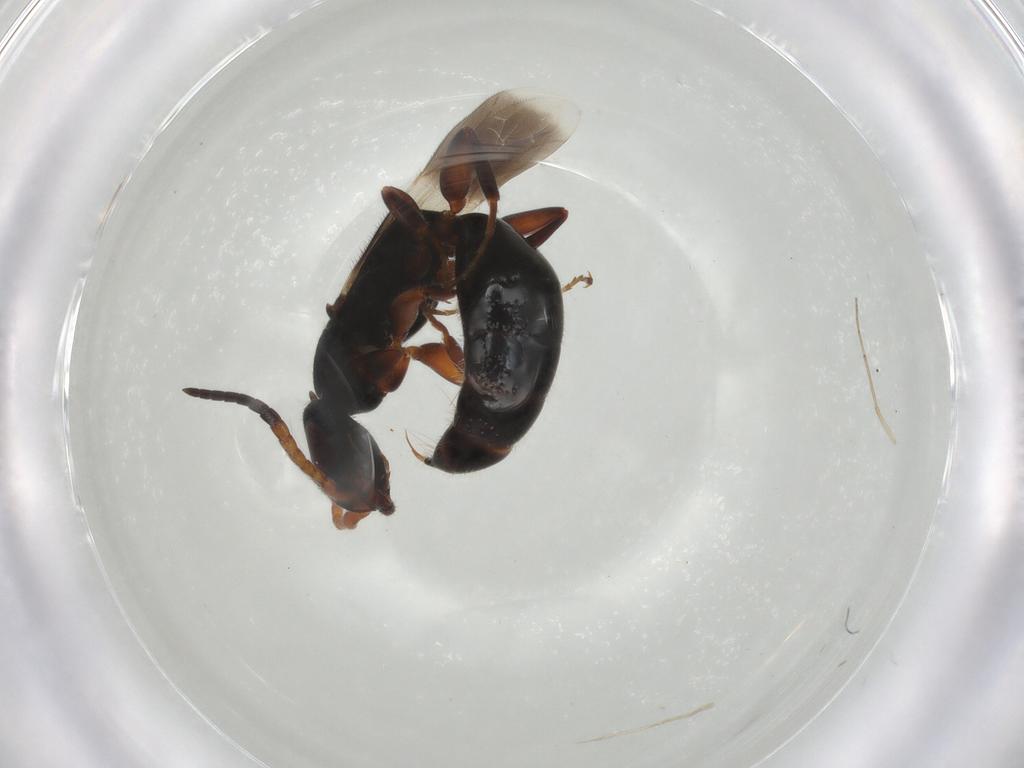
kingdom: Animalia
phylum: Arthropoda
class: Insecta
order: Hymenoptera
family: Bethylidae
